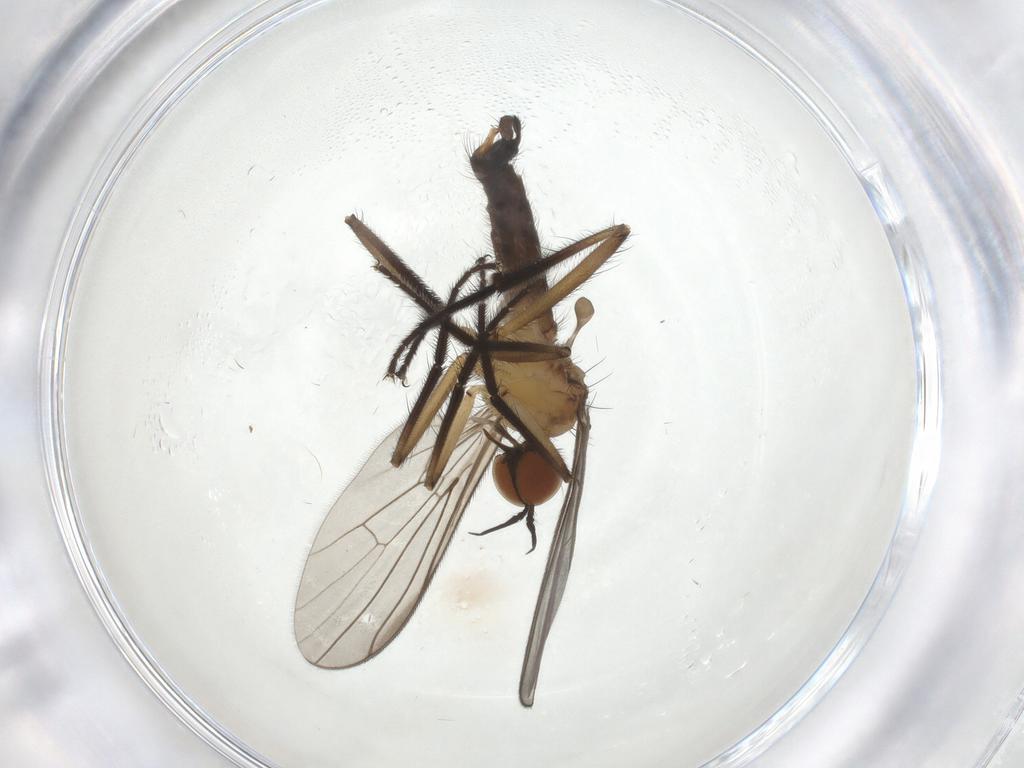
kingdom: Animalia
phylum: Arthropoda
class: Insecta
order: Diptera
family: Empididae
